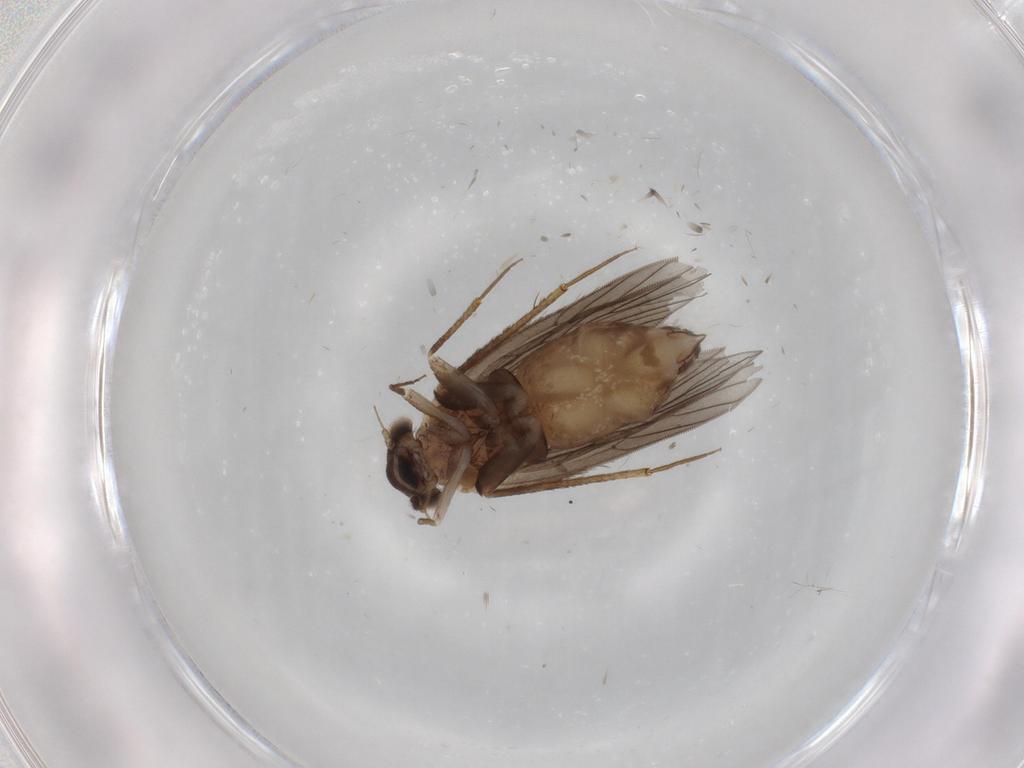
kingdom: Animalia
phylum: Arthropoda
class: Insecta
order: Psocodea
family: Lepidopsocidae
